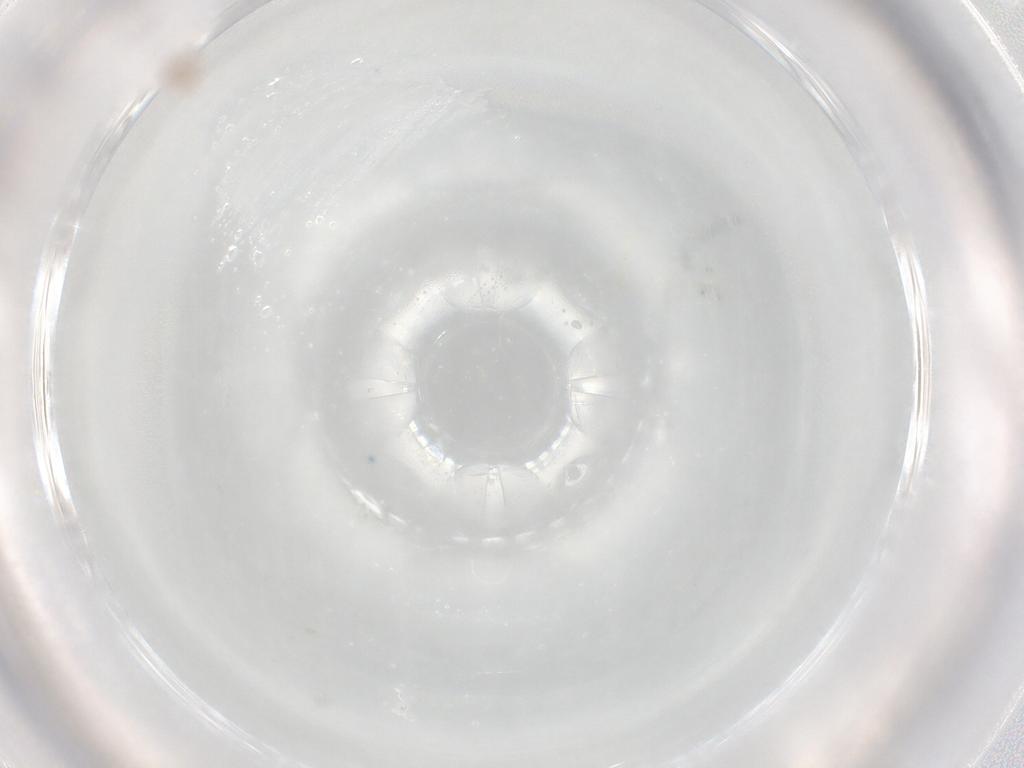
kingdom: Animalia
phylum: Arthropoda
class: Arachnida
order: Trombidiformes
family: Stigmaeidae
